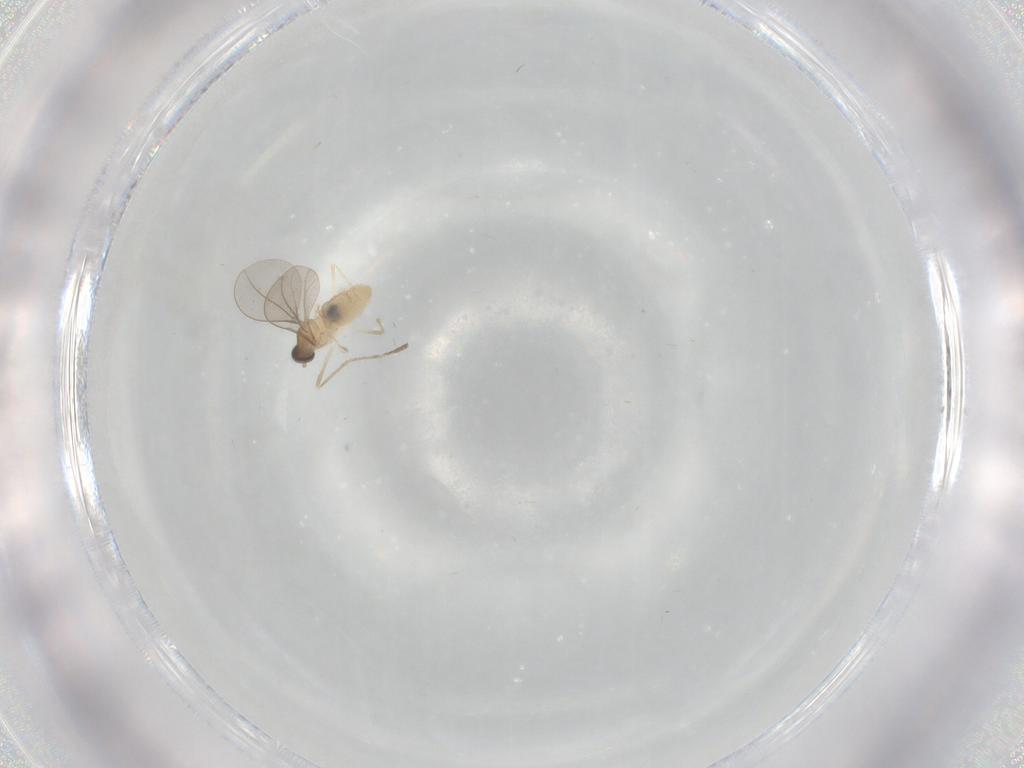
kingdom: Animalia
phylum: Arthropoda
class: Insecta
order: Diptera
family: Cecidomyiidae
